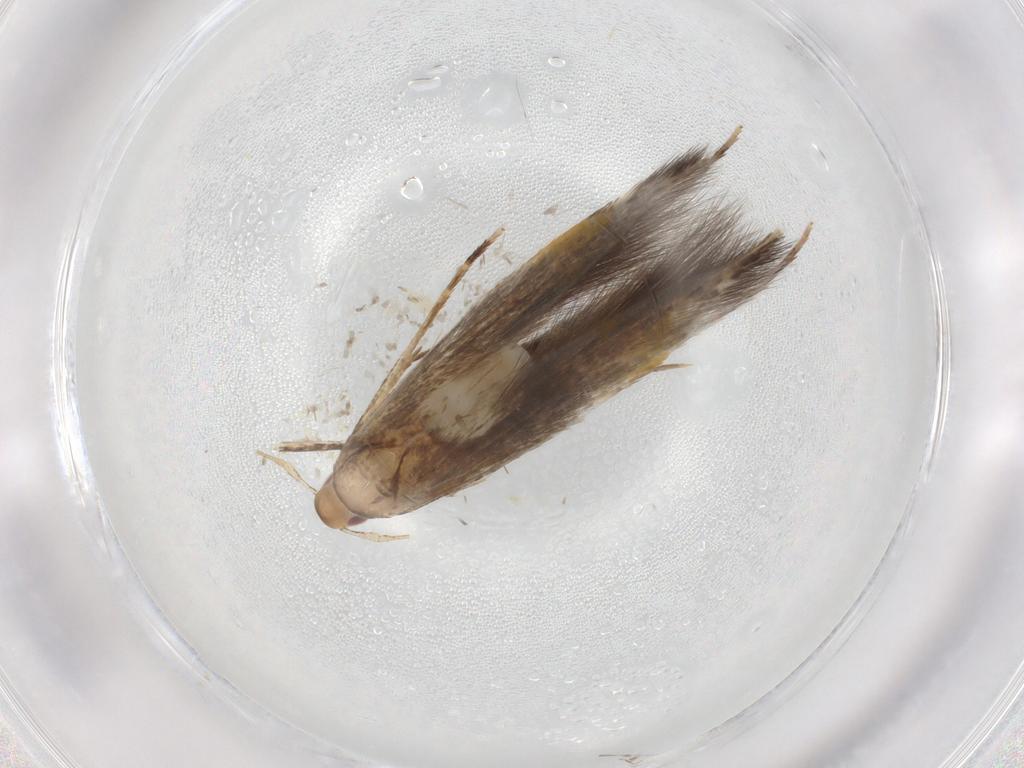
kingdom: Animalia
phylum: Arthropoda
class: Insecta
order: Lepidoptera
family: Cosmopterigidae
